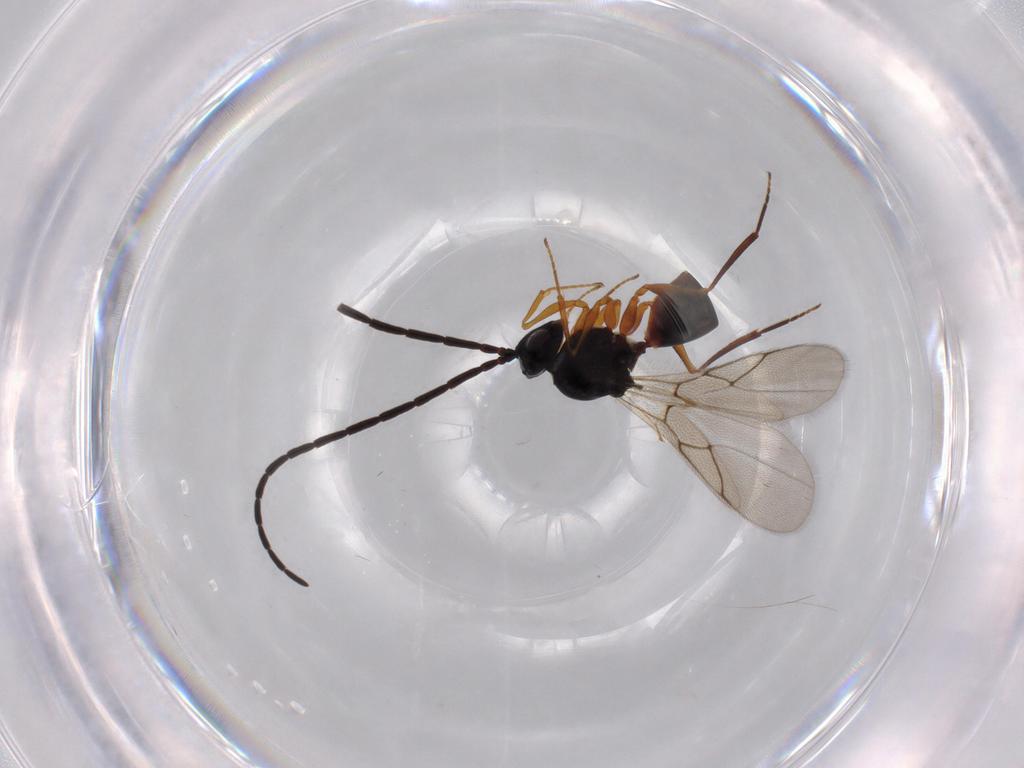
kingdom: Animalia
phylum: Arthropoda
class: Insecta
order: Hymenoptera
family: Figitidae
